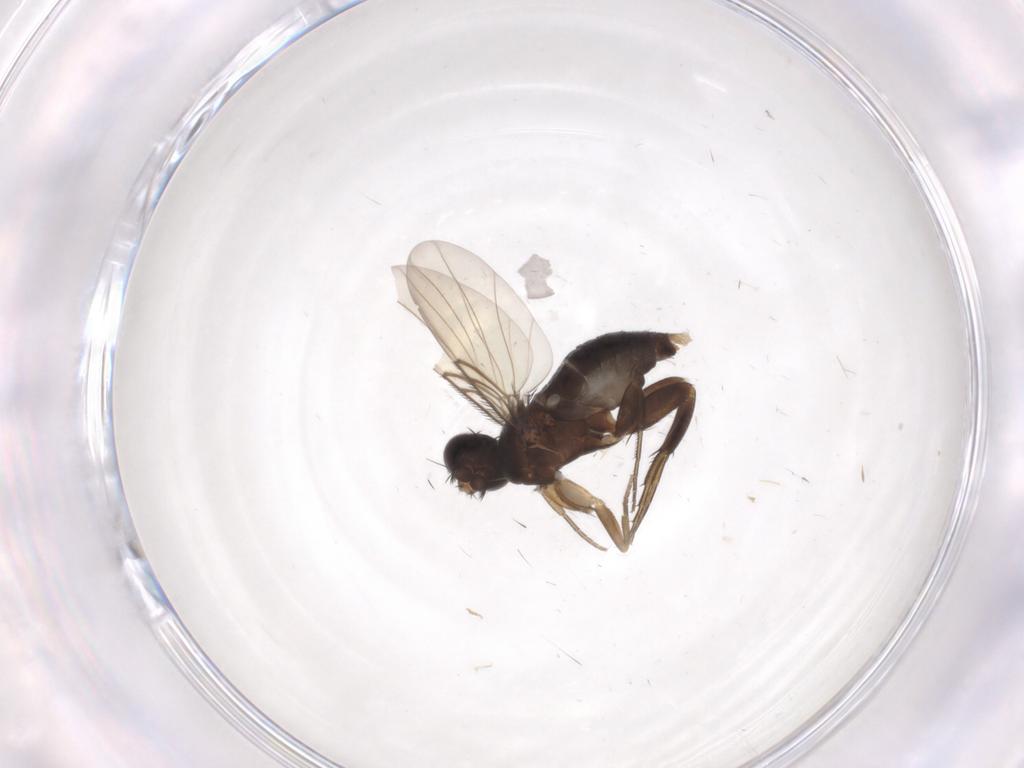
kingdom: Animalia
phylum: Arthropoda
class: Insecta
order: Diptera
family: Phoridae
